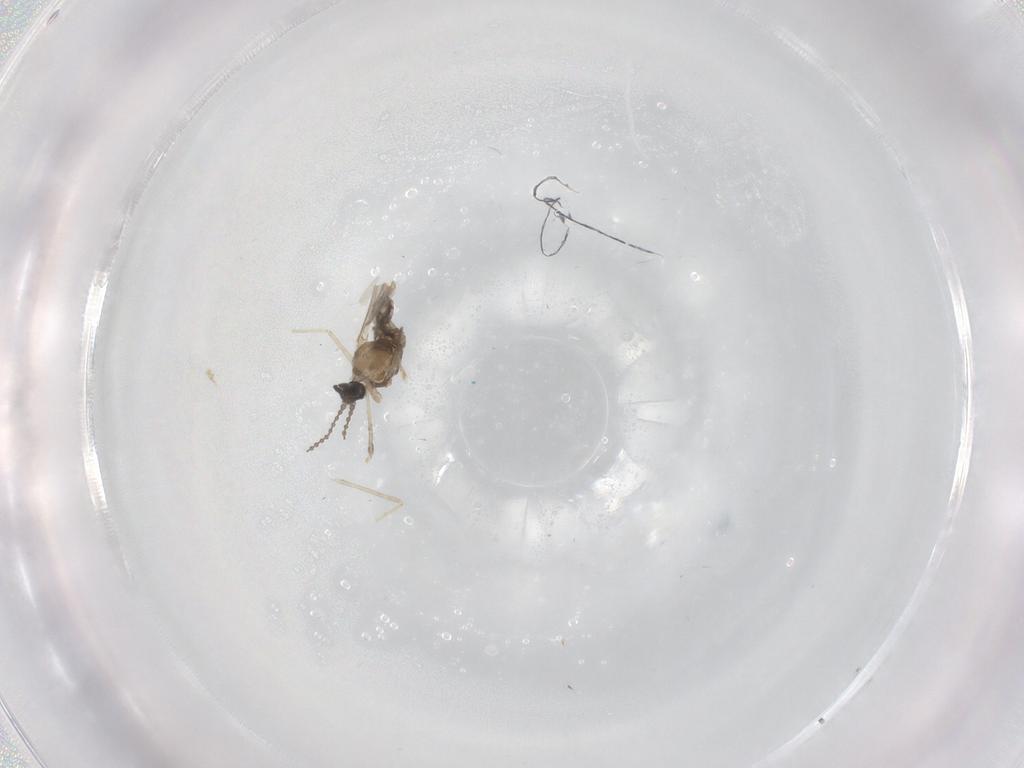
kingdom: Animalia
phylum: Arthropoda
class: Insecta
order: Diptera
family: Cecidomyiidae
